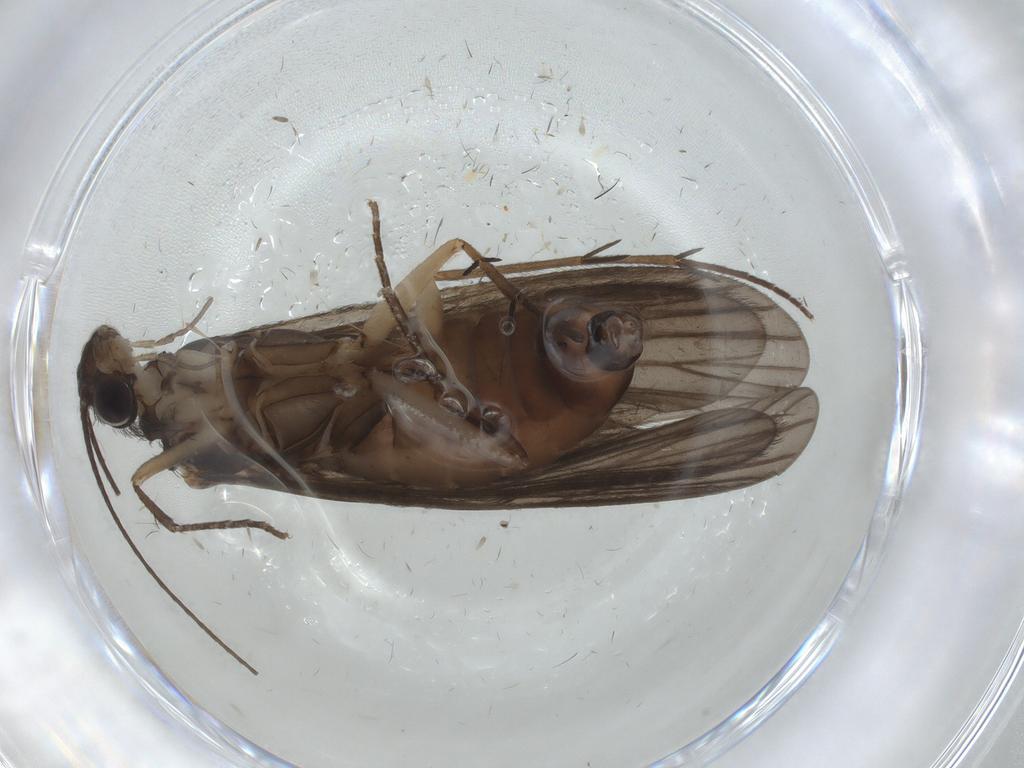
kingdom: Animalia
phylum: Arthropoda
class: Insecta
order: Trichoptera
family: Philopotamidae
